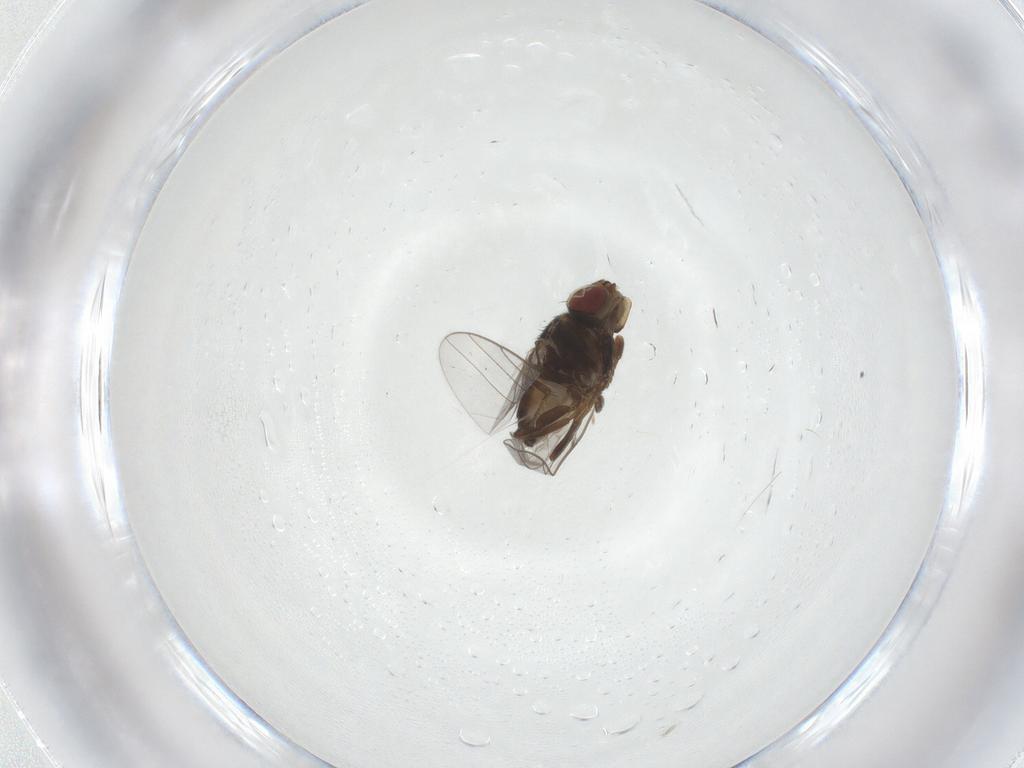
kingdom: Animalia
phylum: Arthropoda
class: Insecta
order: Diptera
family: Chloropidae
